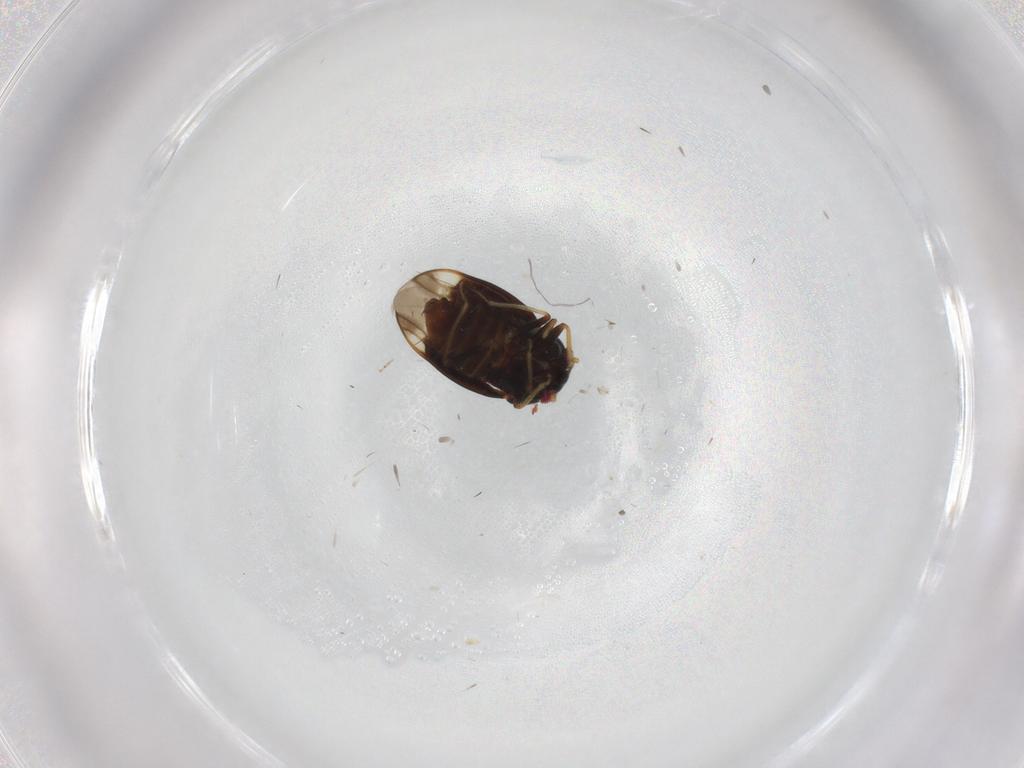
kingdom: Animalia
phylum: Arthropoda
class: Insecta
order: Hemiptera
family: Schizopteridae
